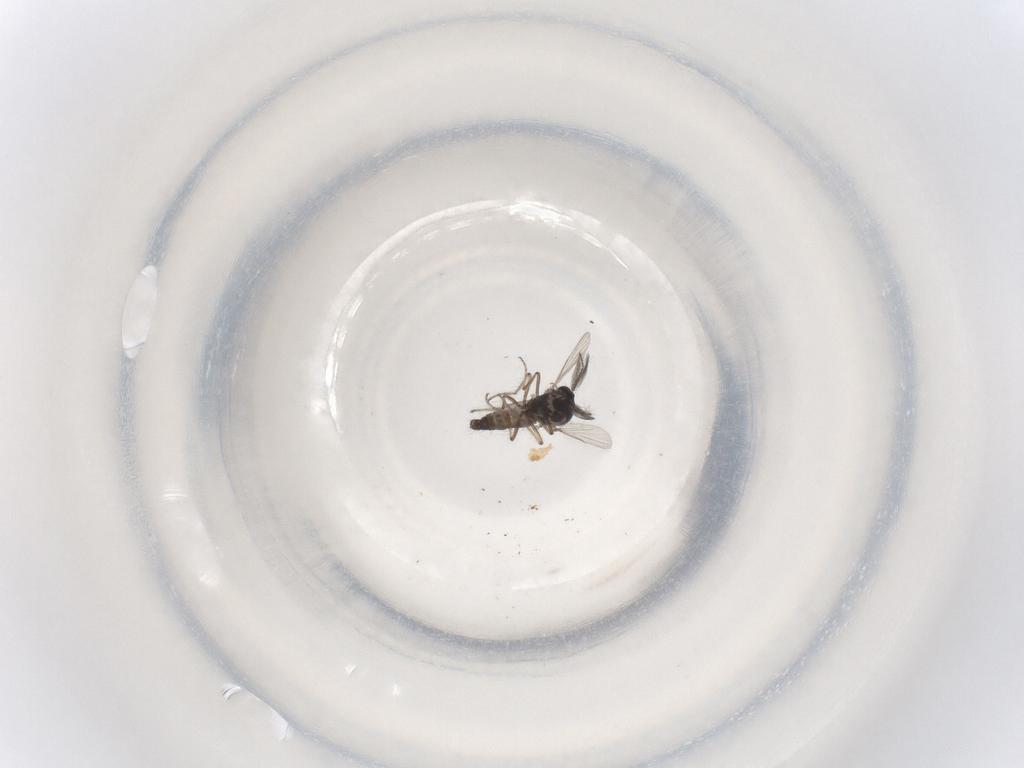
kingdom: Animalia
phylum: Arthropoda
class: Insecta
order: Diptera
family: Ceratopogonidae
